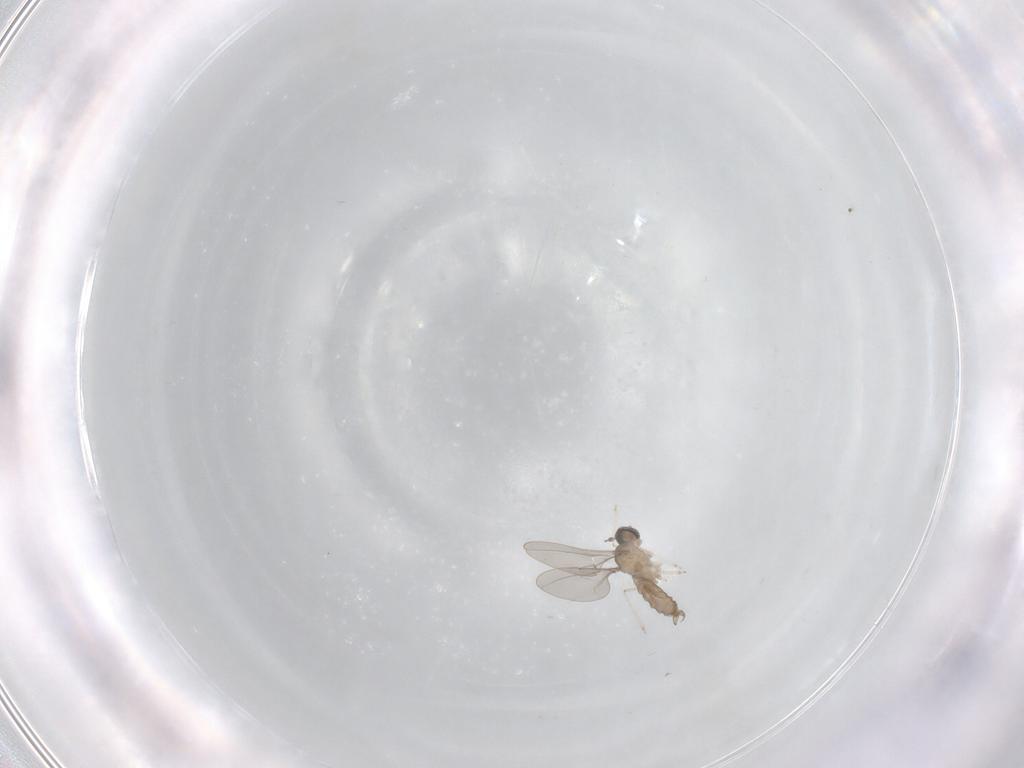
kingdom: Animalia
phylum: Arthropoda
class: Insecta
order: Diptera
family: Cecidomyiidae
